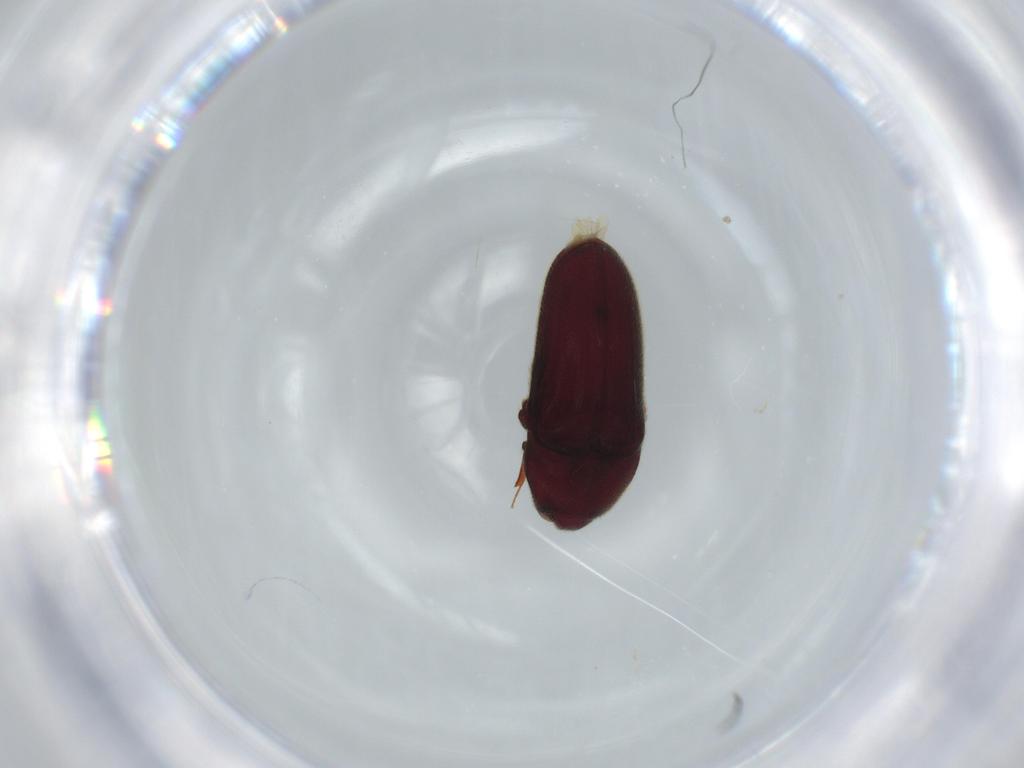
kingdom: Animalia
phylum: Arthropoda
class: Insecta
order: Coleoptera
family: Throscidae
